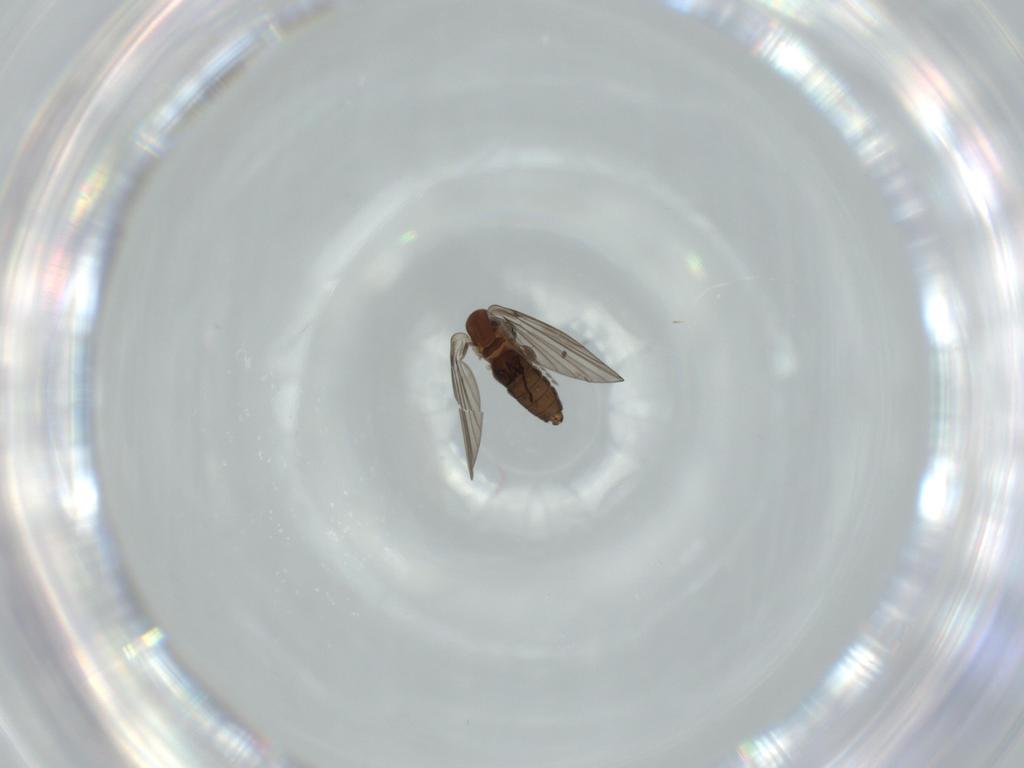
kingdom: Animalia
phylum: Arthropoda
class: Insecta
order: Diptera
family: Psychodidae
